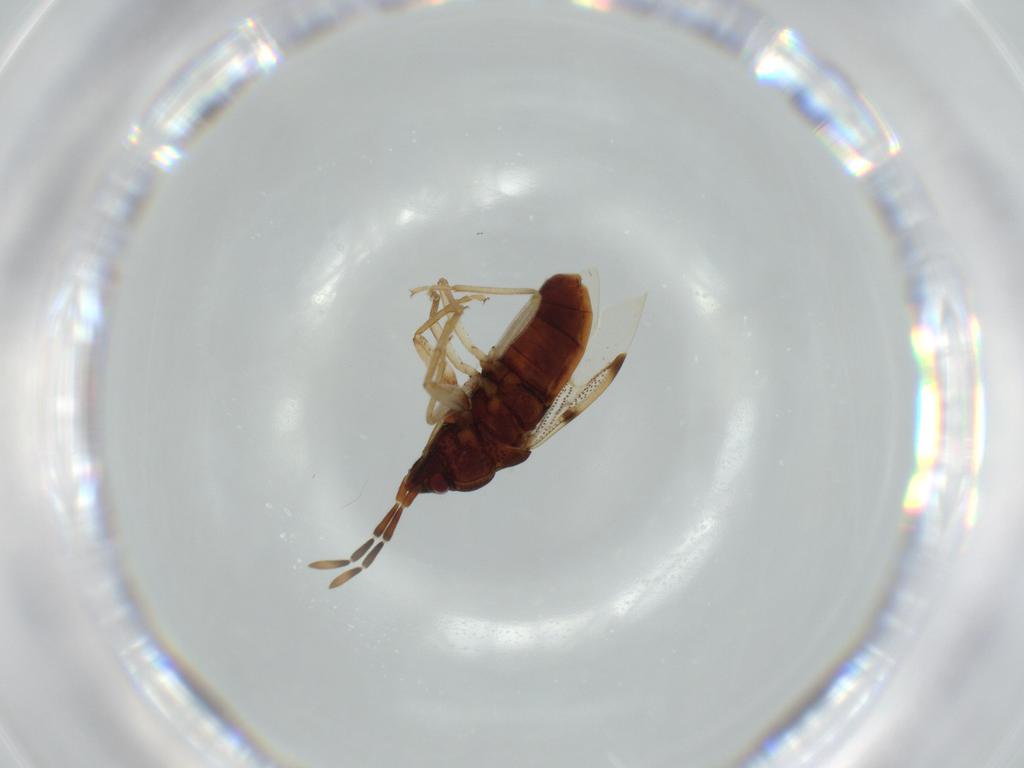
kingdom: Animalia
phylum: Arthropoda
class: Insecta
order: Hemiptera
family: Rhyparochromidae
